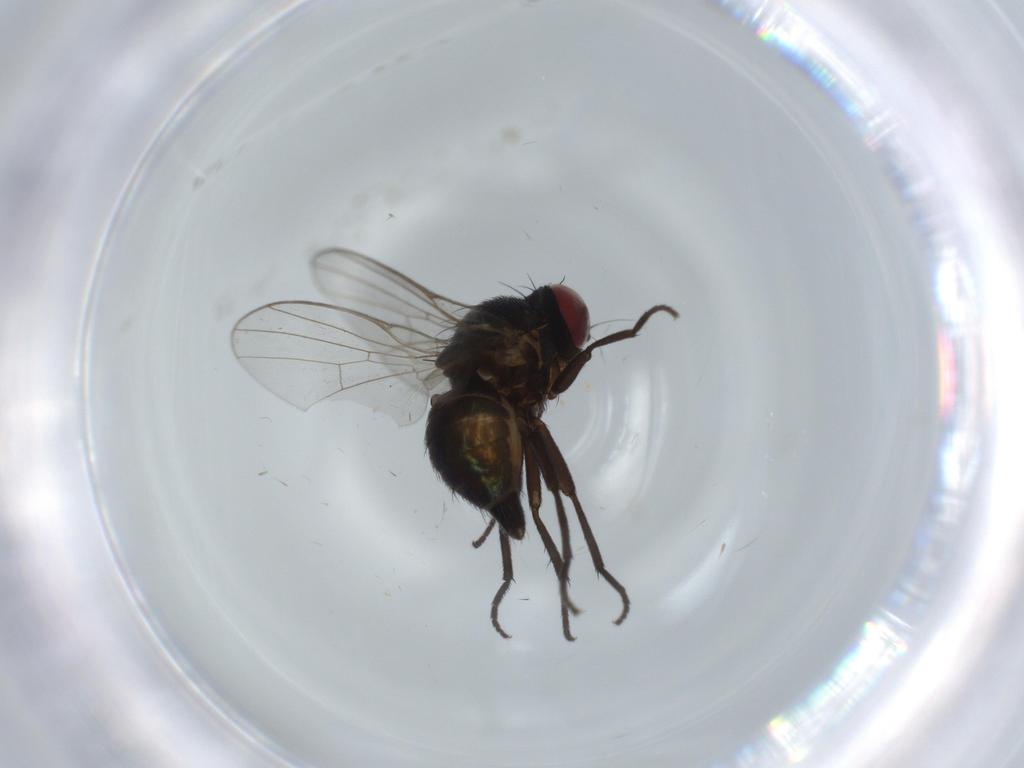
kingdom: Animalia
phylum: Arthropoda
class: Insecta
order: Diptera
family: Agromyzidae
